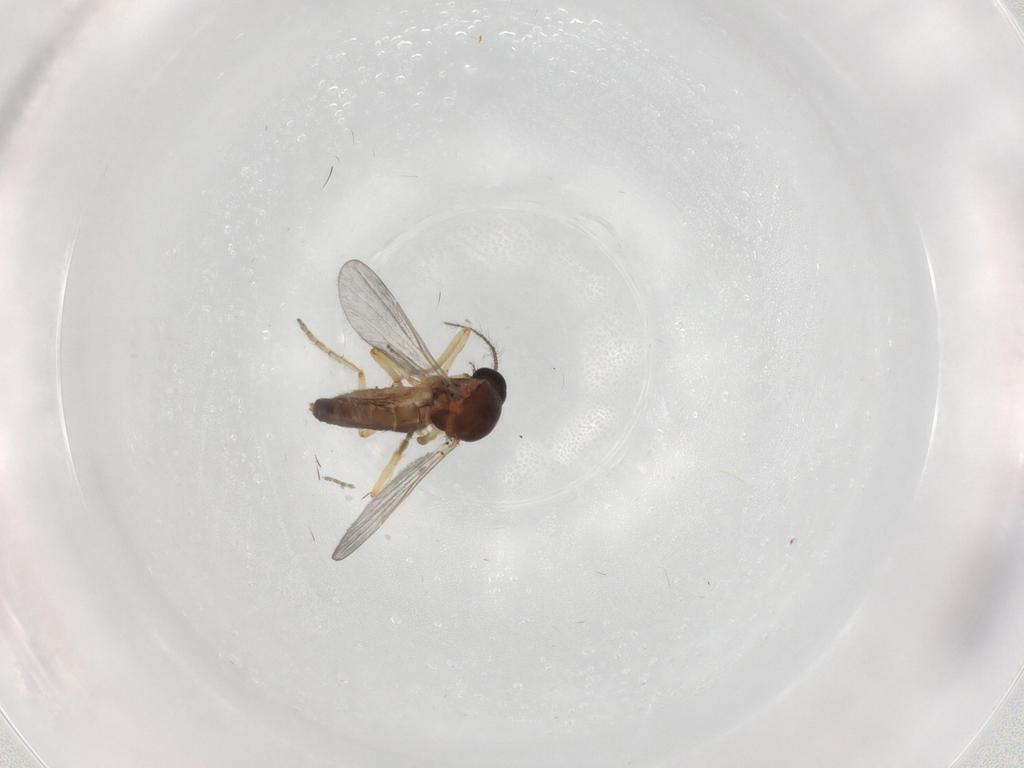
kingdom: Animalia
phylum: Arthropoda
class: Insecta
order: Diptera
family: Ceratopogonidae
